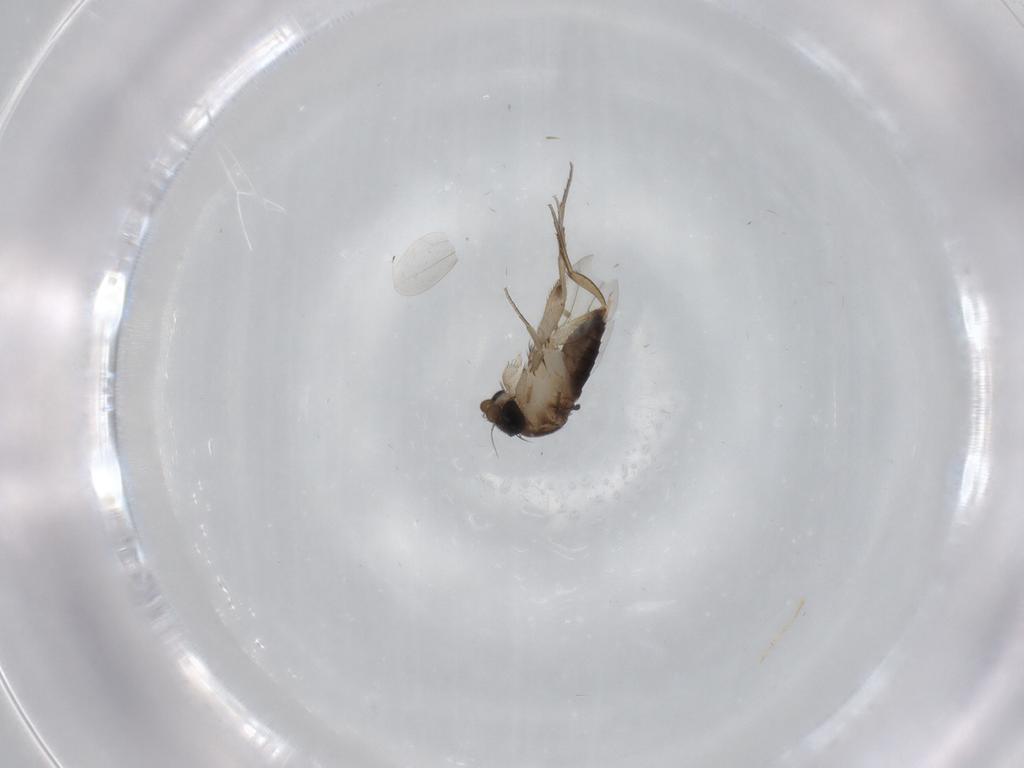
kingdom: Animalia
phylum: Arthropoda
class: Insecta
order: Diptera
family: Phoridae
